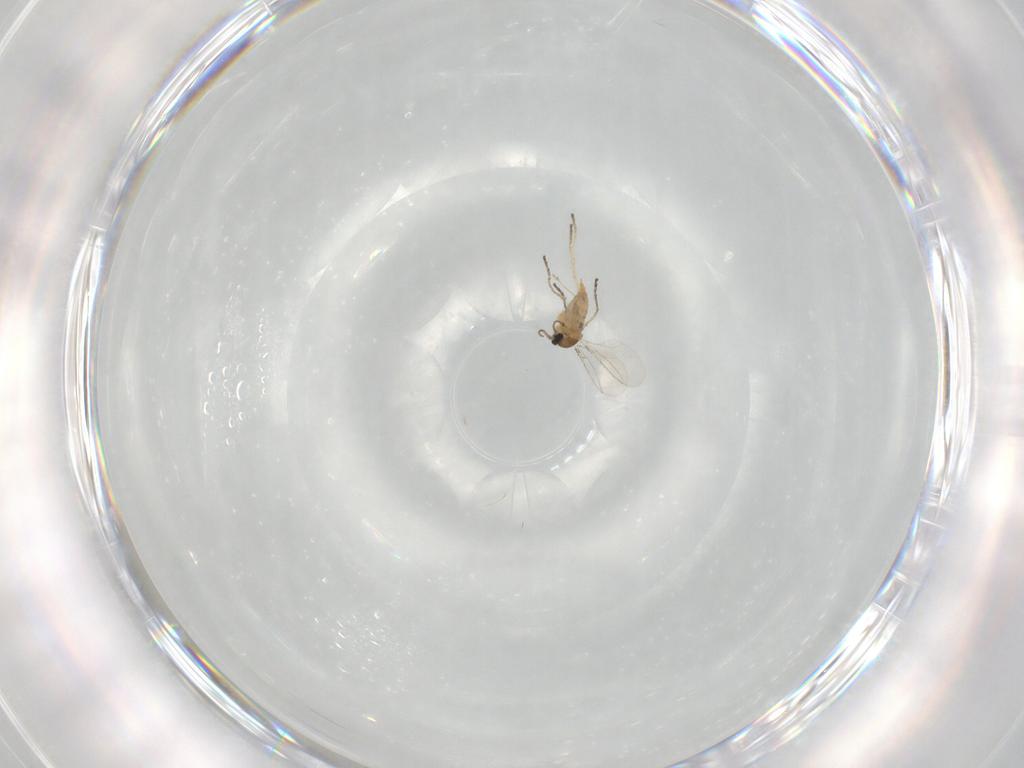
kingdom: Animalia
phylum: Arthropoda
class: Insecta
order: Diptera
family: Cecidomyiidae
